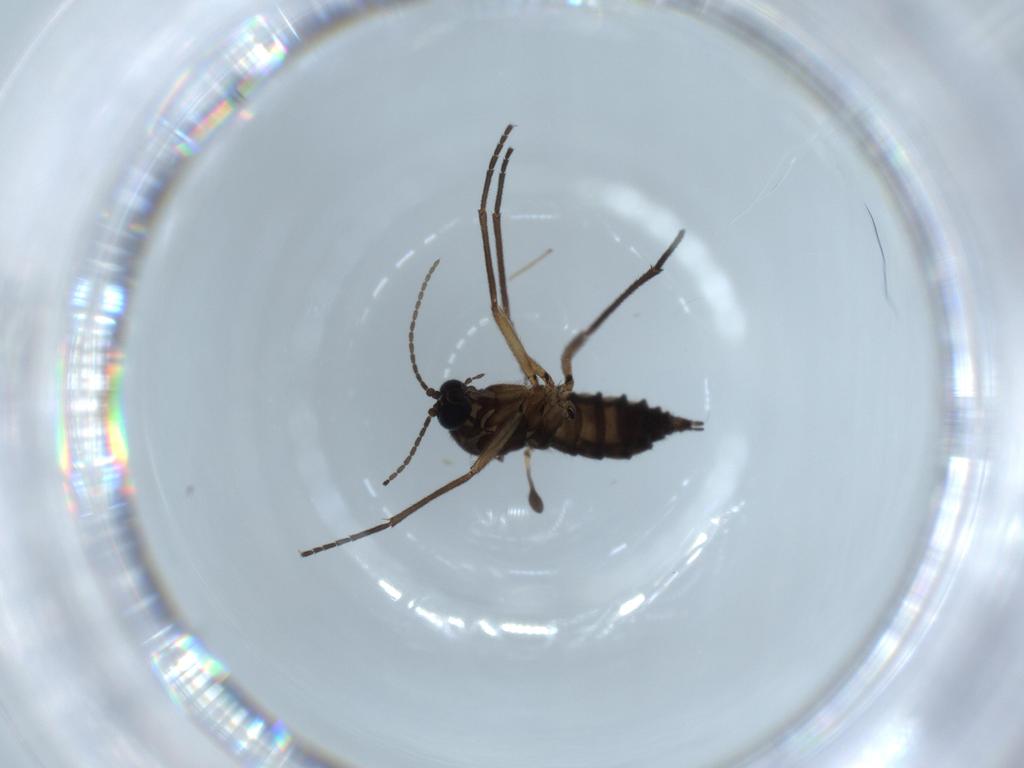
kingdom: Animalia
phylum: Arthropoda
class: Insecta
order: Diptera
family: Sciaridae
